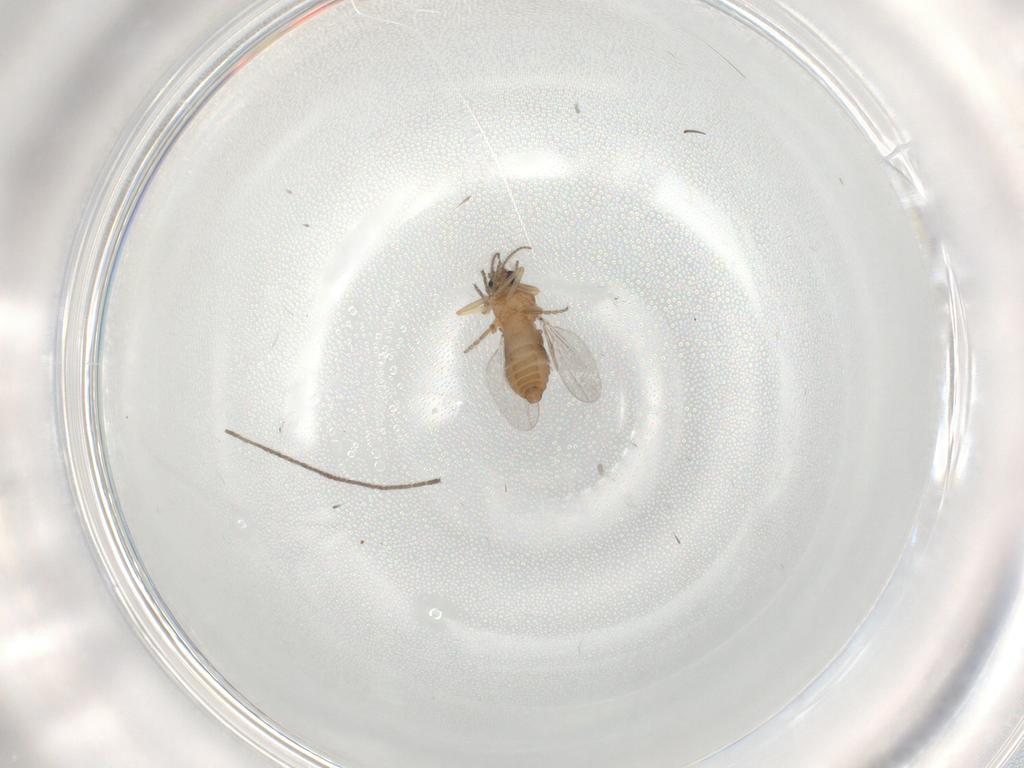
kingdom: Animalia
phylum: Arthropoda
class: Insecta
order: Diptera
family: Ceratopogonidae
